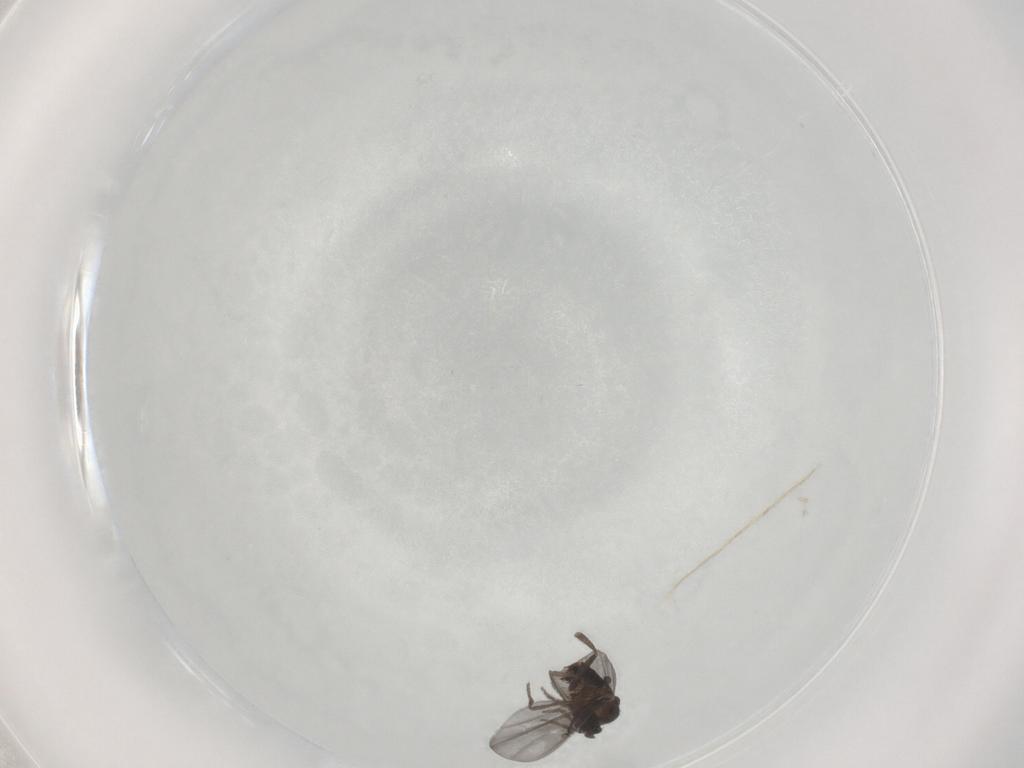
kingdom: Animalia
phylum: Arthropoda
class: Insecta
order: Diptera
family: Phoridae
